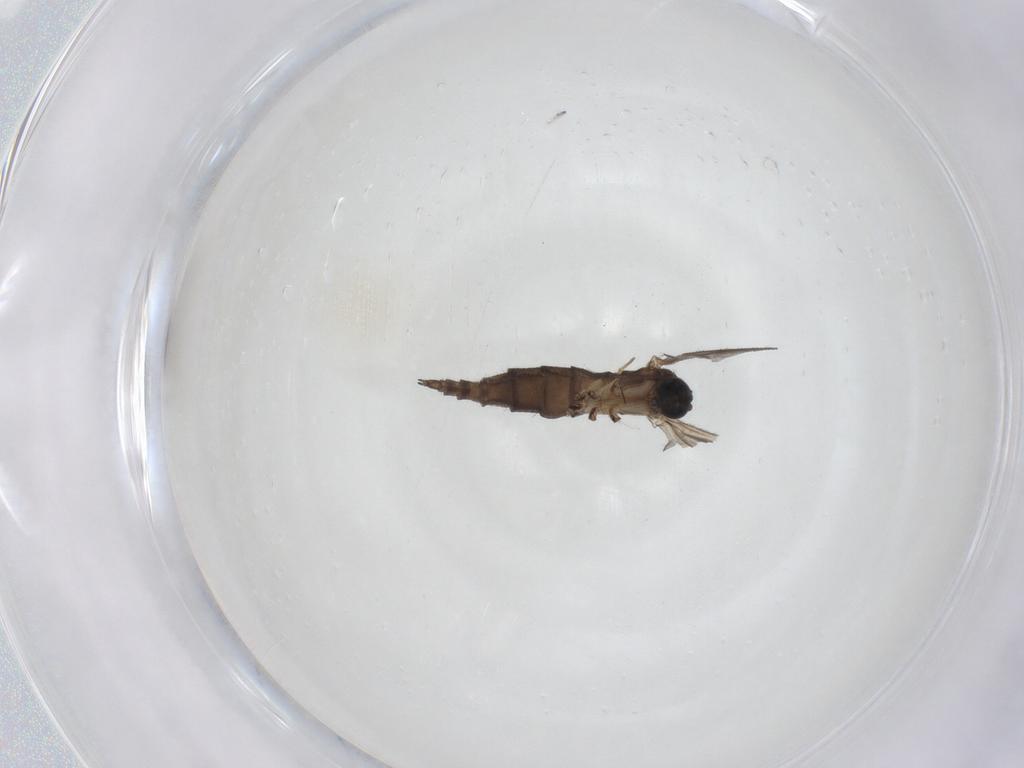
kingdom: Animalia
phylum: Arthropoda
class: Insecta
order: Diptera
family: Sciaridae
